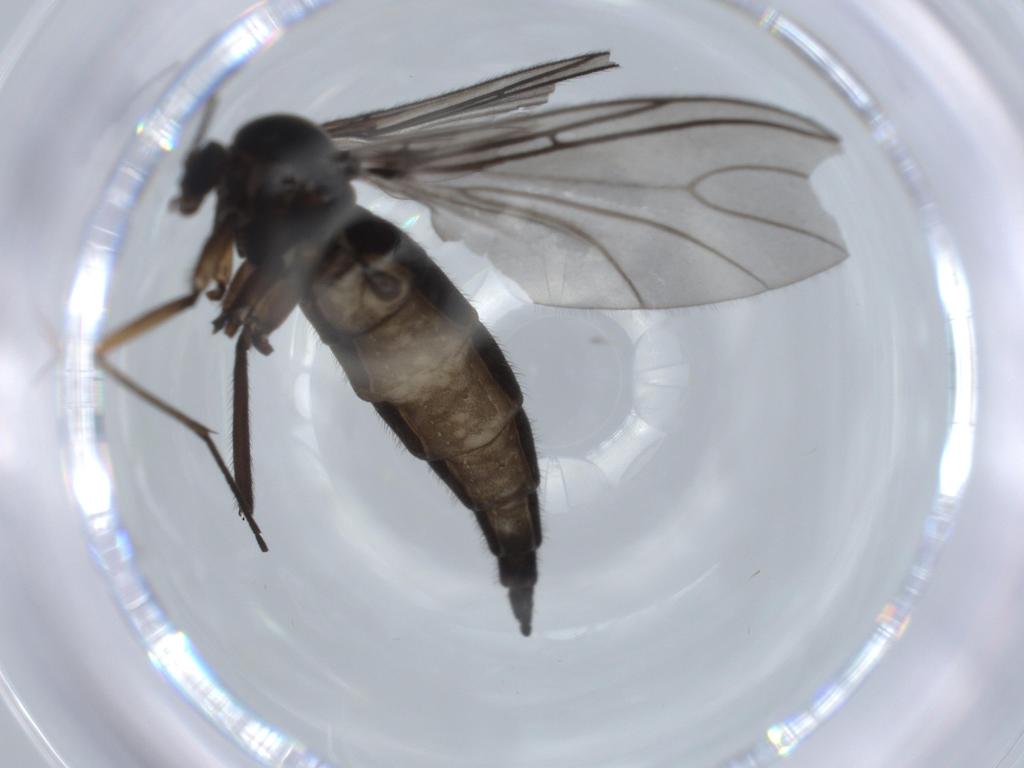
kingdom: Animalia
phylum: Arthropoda
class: Insecta
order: Diptera
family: Sciaridae
